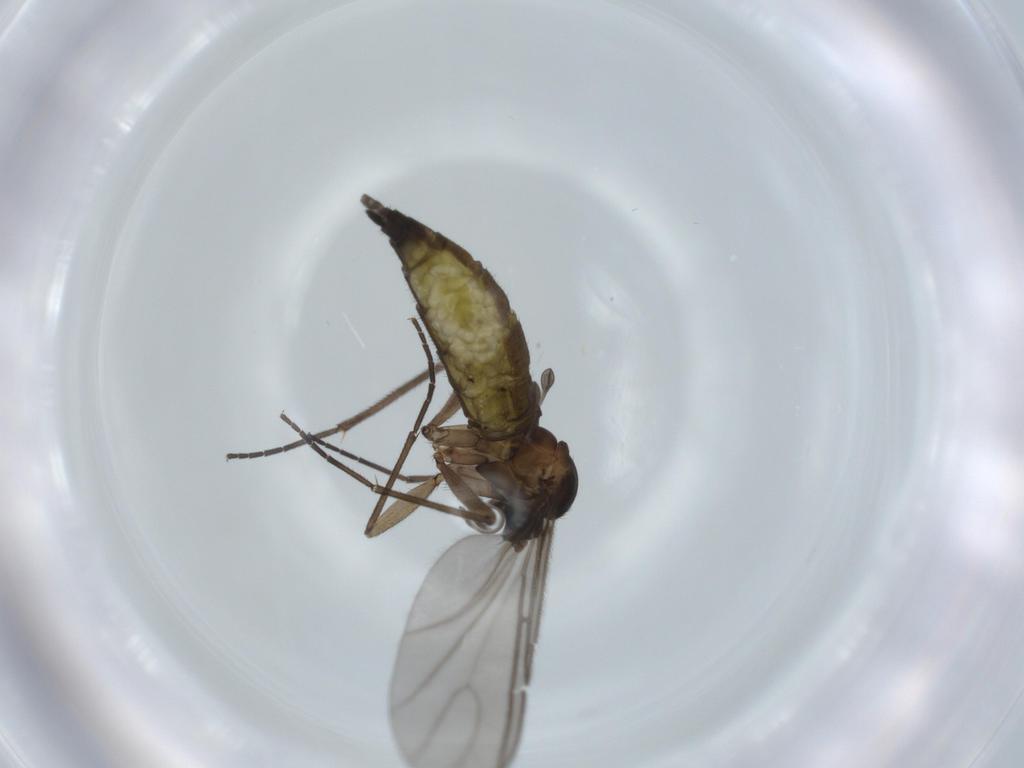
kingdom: Animalia
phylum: Arthropoda
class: Insecta
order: Diptera
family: Sciaridae
